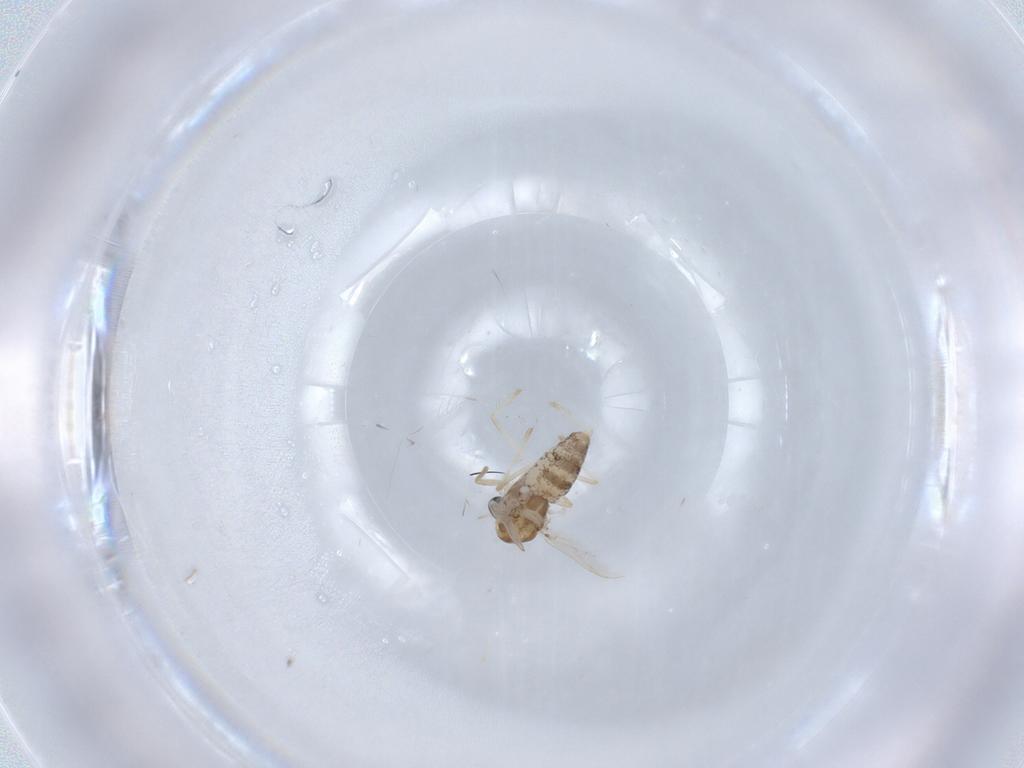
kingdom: Animalia
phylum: Arthropoda
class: Insecta
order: Diptera
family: Chironomidae
